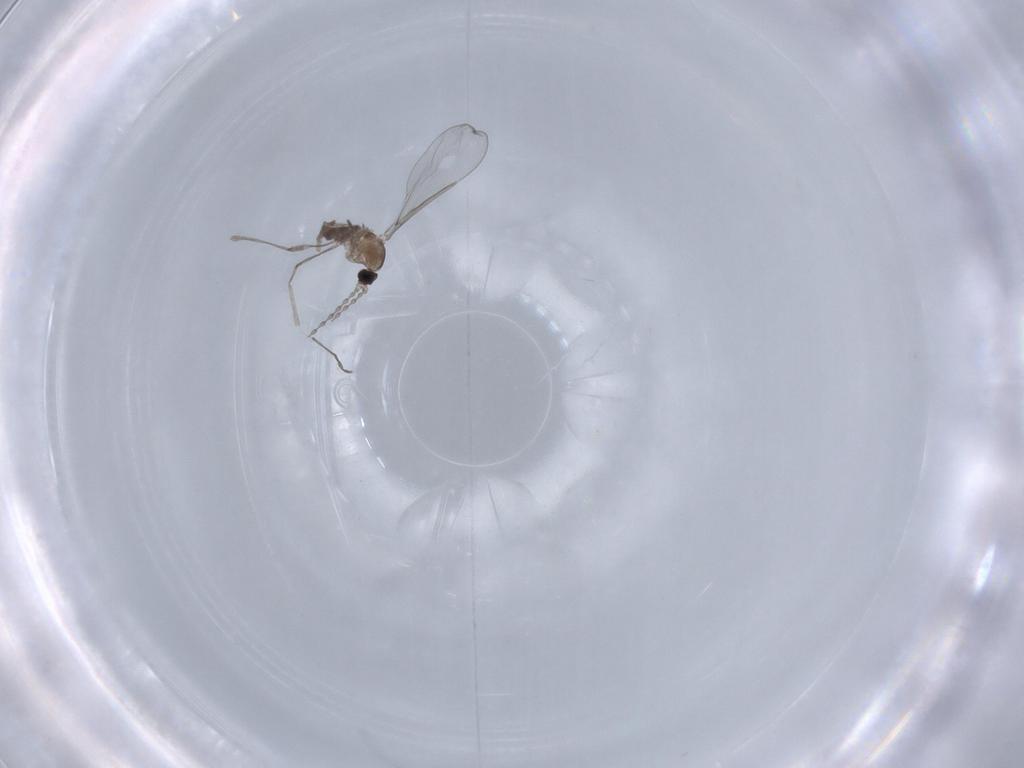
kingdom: Animalia
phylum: Arthropoda
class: Insecta
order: Diptera
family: Cecidomyiidae
